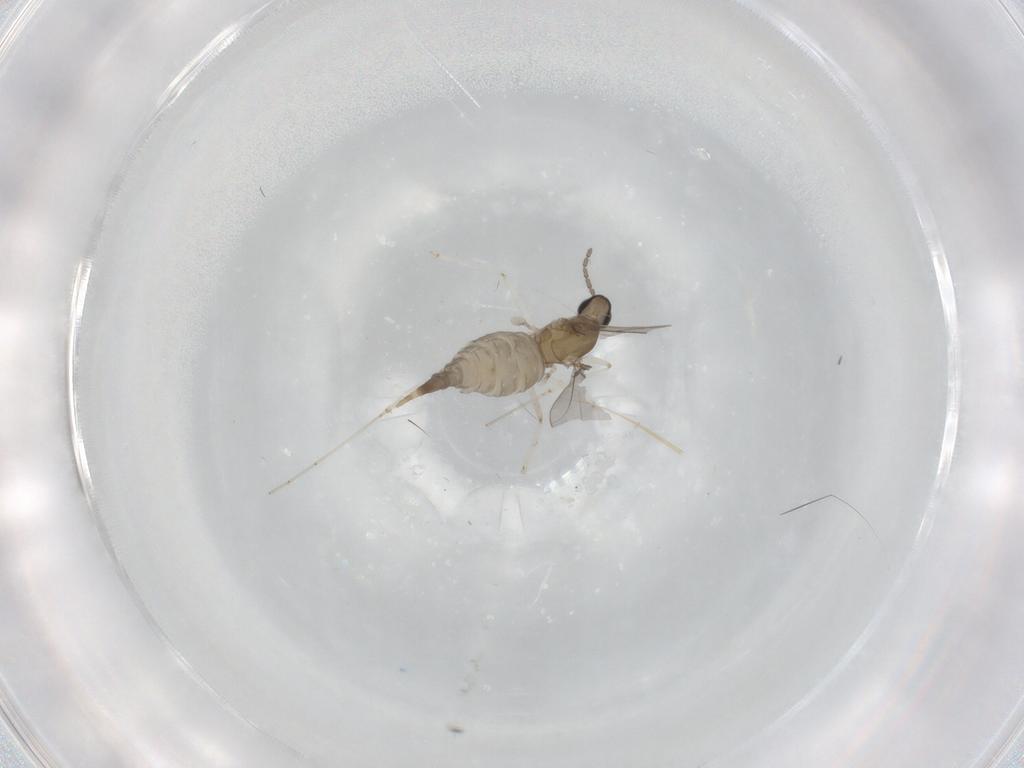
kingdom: Animalia
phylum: Arthropoda
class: Insecta
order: Diptera
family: Cecidomyiidae
